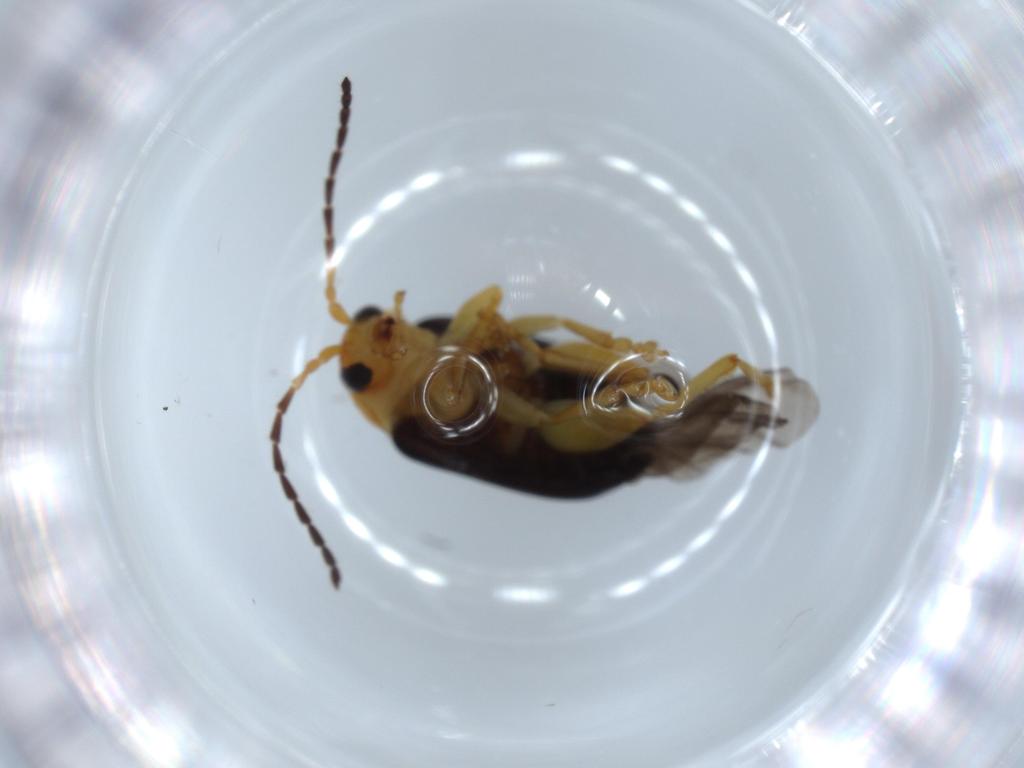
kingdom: Animalia
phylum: Arthropoda
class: Insecta
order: Coleoptera
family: Chrysomelidae
